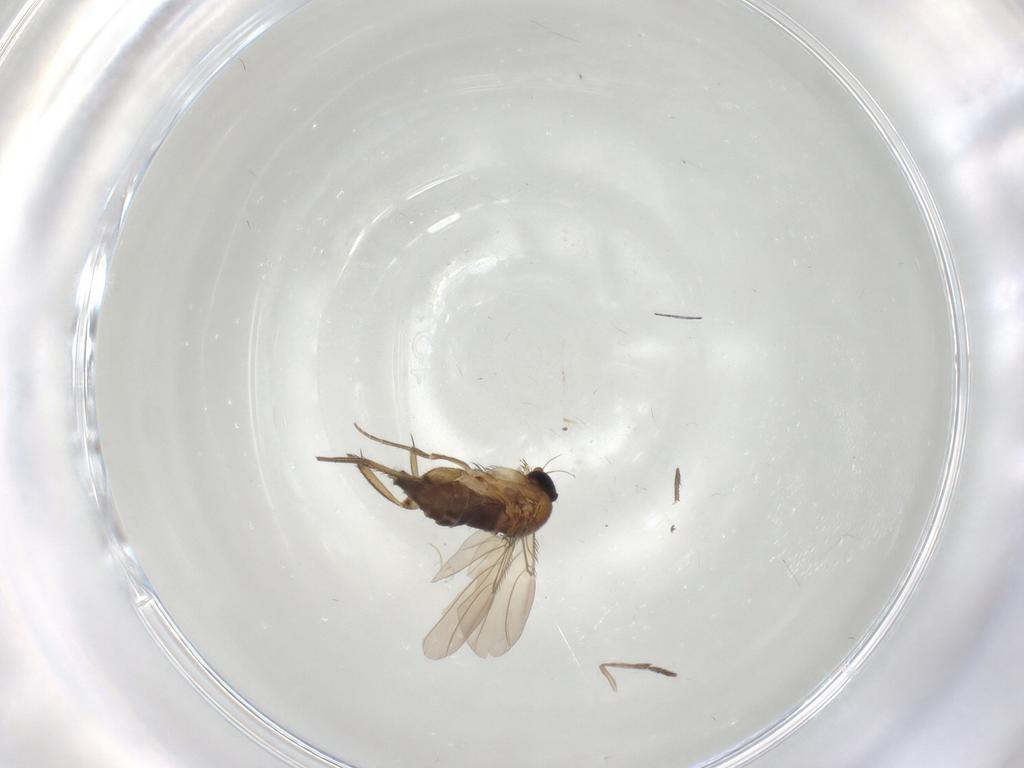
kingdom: Animalia
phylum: Arthropoda
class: Insecta
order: Diptera
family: Phoridae
